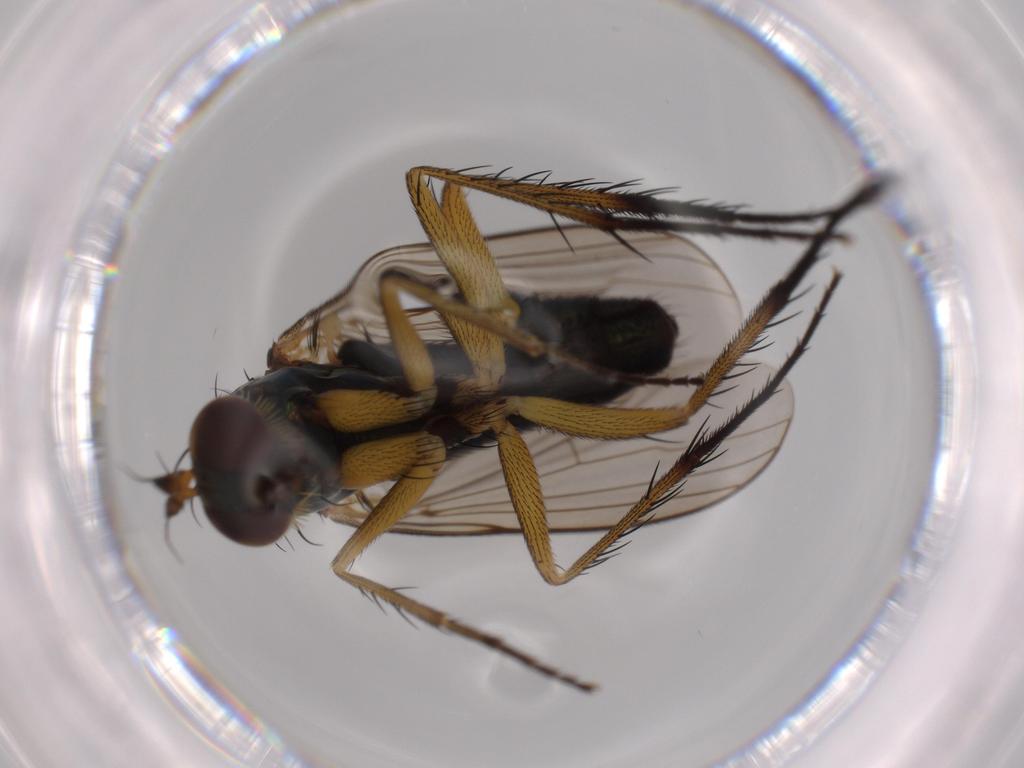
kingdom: Animalia
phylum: Arthropoda
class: Insecta
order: Diptera
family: Dolichopodidae
